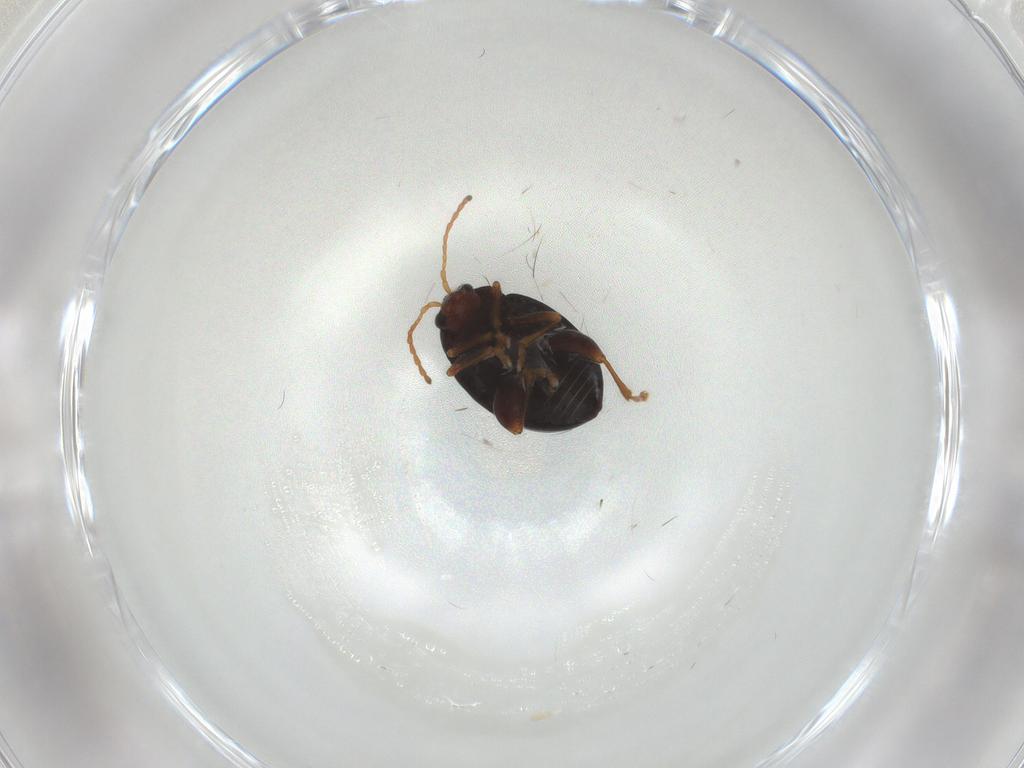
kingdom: Animalia
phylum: Arthropoda
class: Insecta
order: Coleoptera
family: Chrysomelidae
